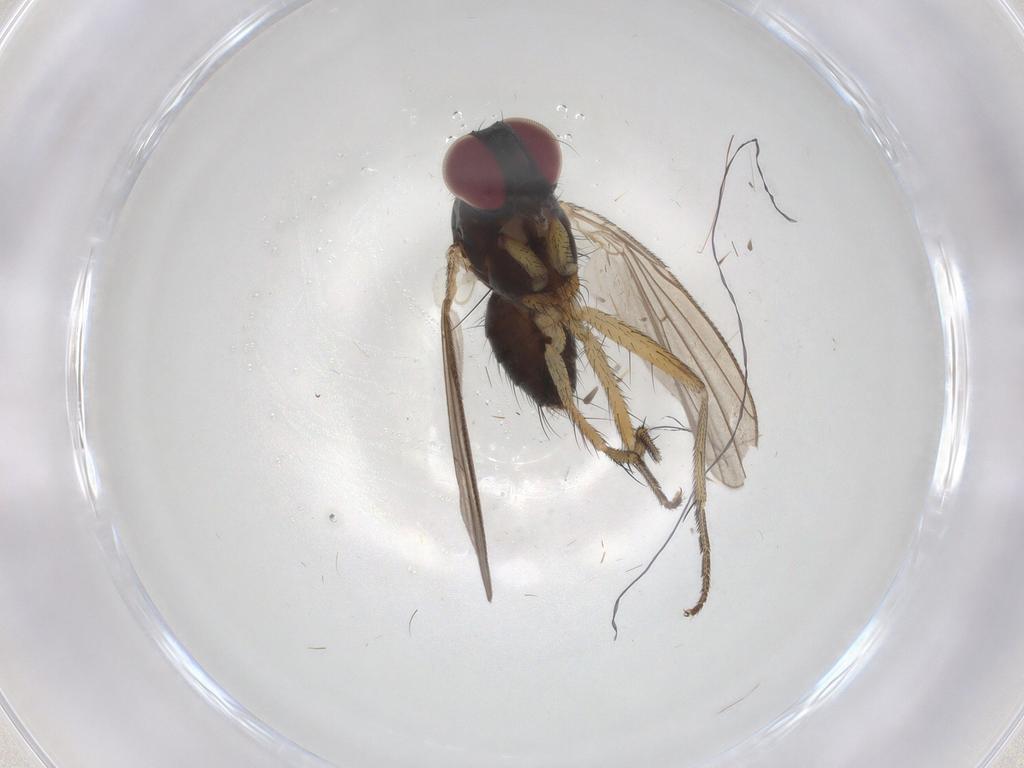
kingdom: Animalia
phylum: Arthropoda
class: Insecta
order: Diptera
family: Muscidae
